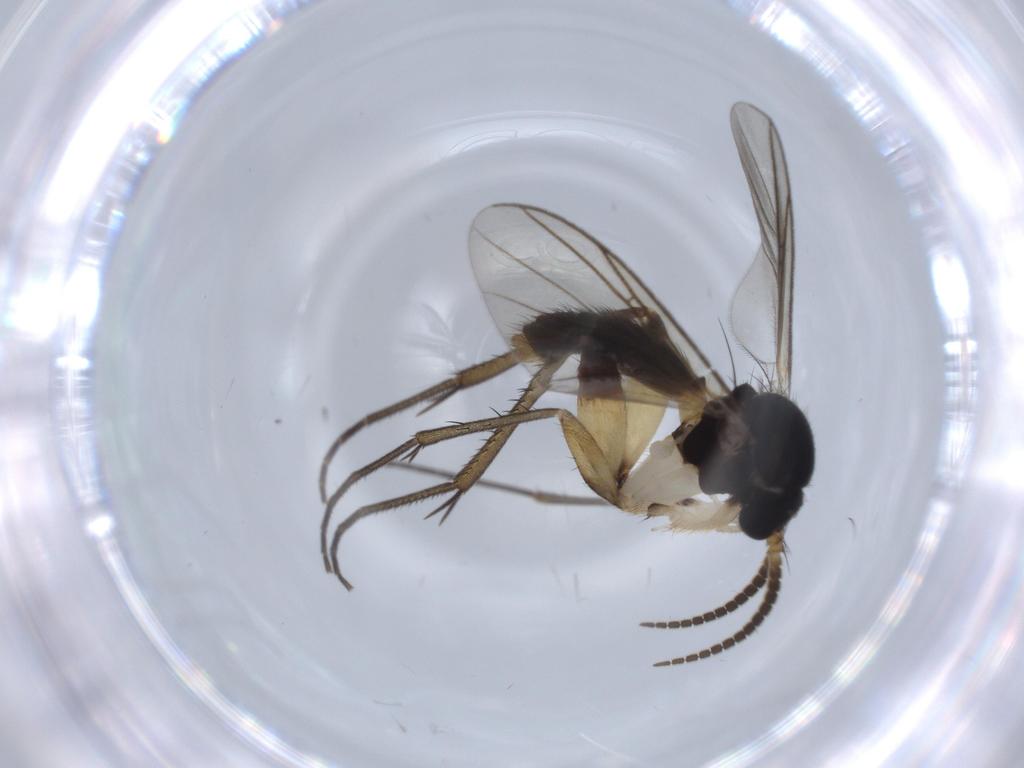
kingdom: Animalia
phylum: Arthropoda
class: Insecta
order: Diptera
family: Mycetophilidae
